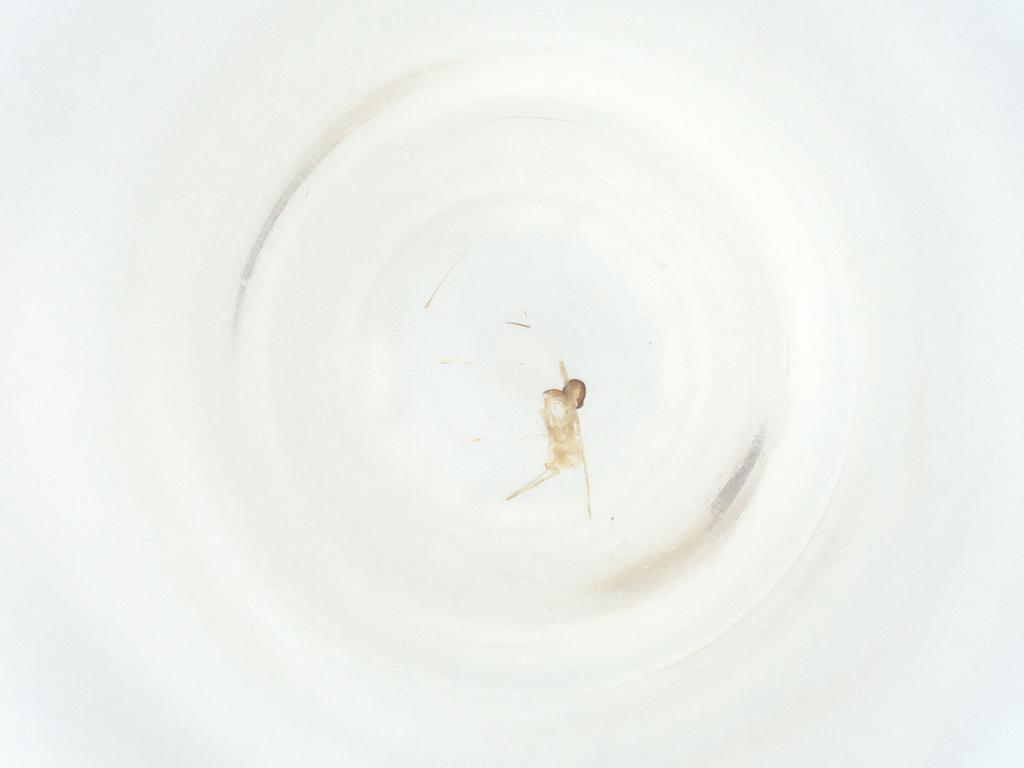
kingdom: Animalia
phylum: Arthropoda
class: Insecta
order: Diptera
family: Cecidomyiidae
